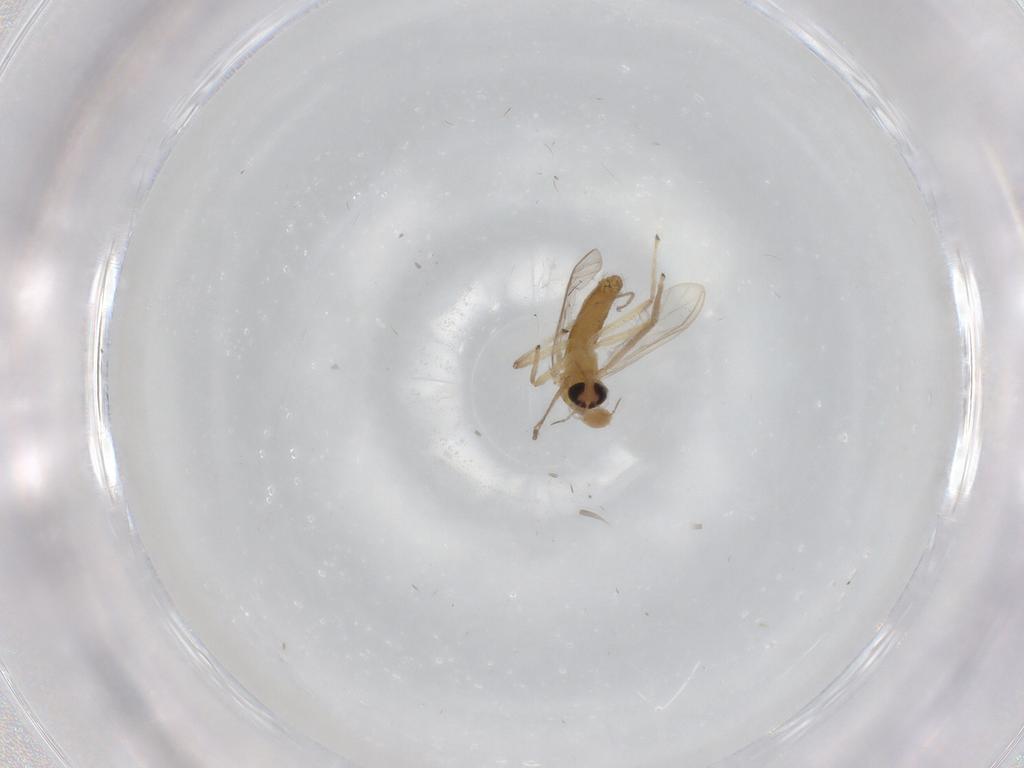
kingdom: Animalia
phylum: Arthropoda
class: Insecta
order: Diptera
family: Chironomidae
